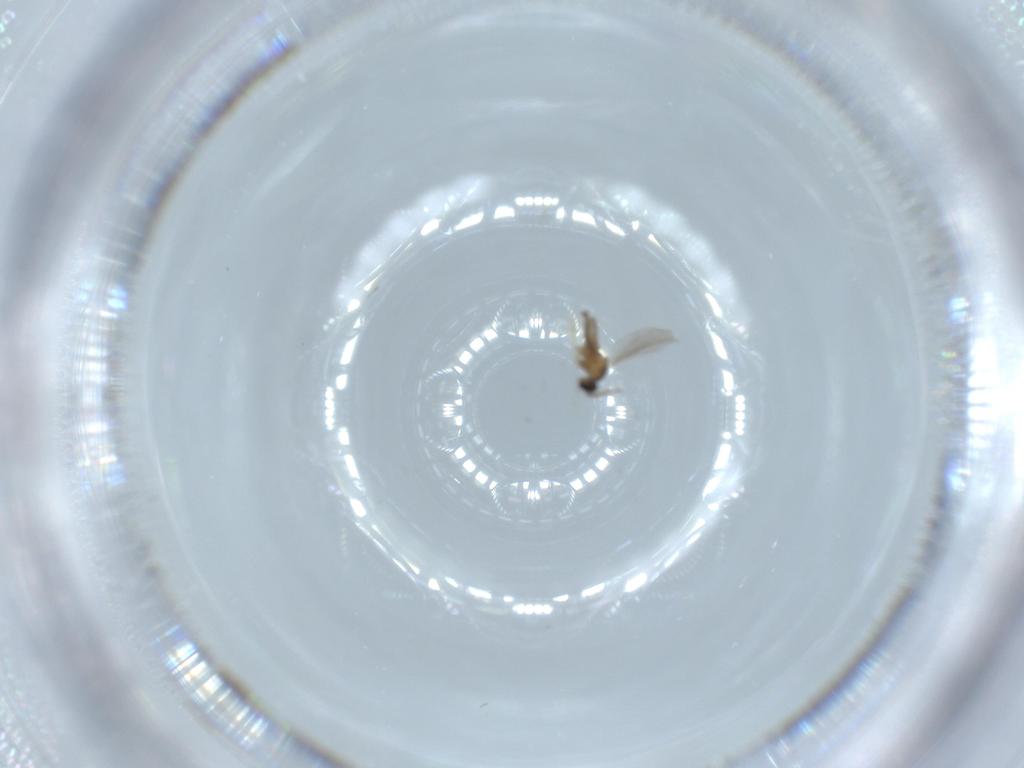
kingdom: Animalia
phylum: Arthropoda
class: Insecta
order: Diptera
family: Cecidomyiidae
